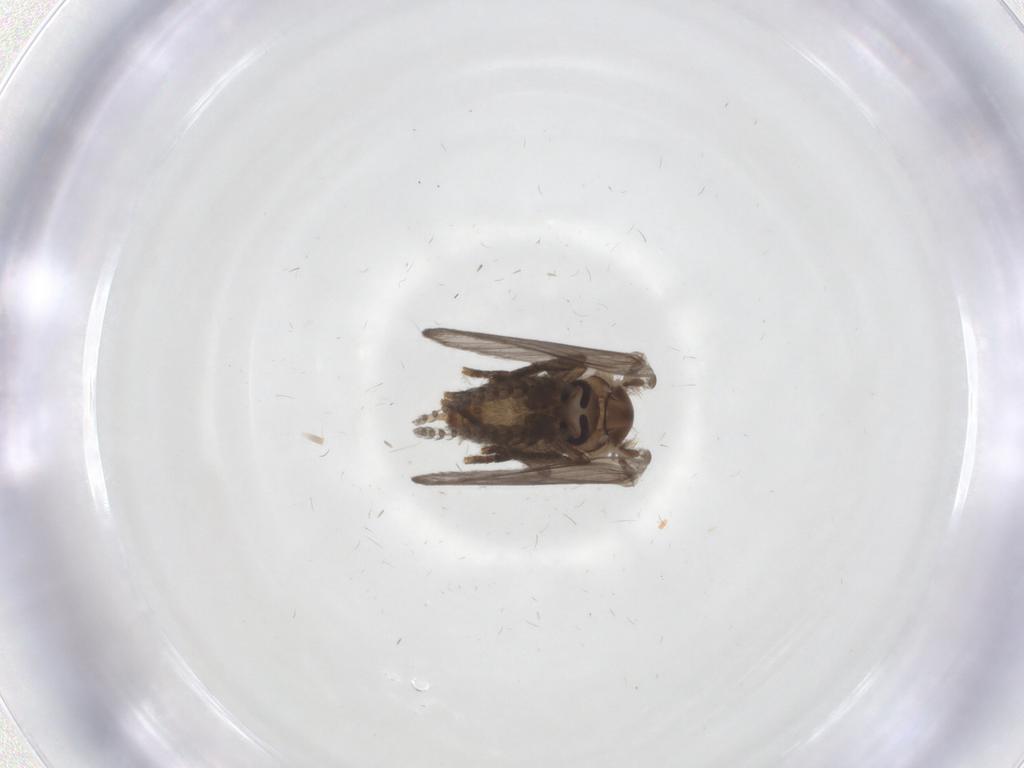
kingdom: Animalia
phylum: Arthropoda
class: Insecta
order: Diptera
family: Psychodidae
